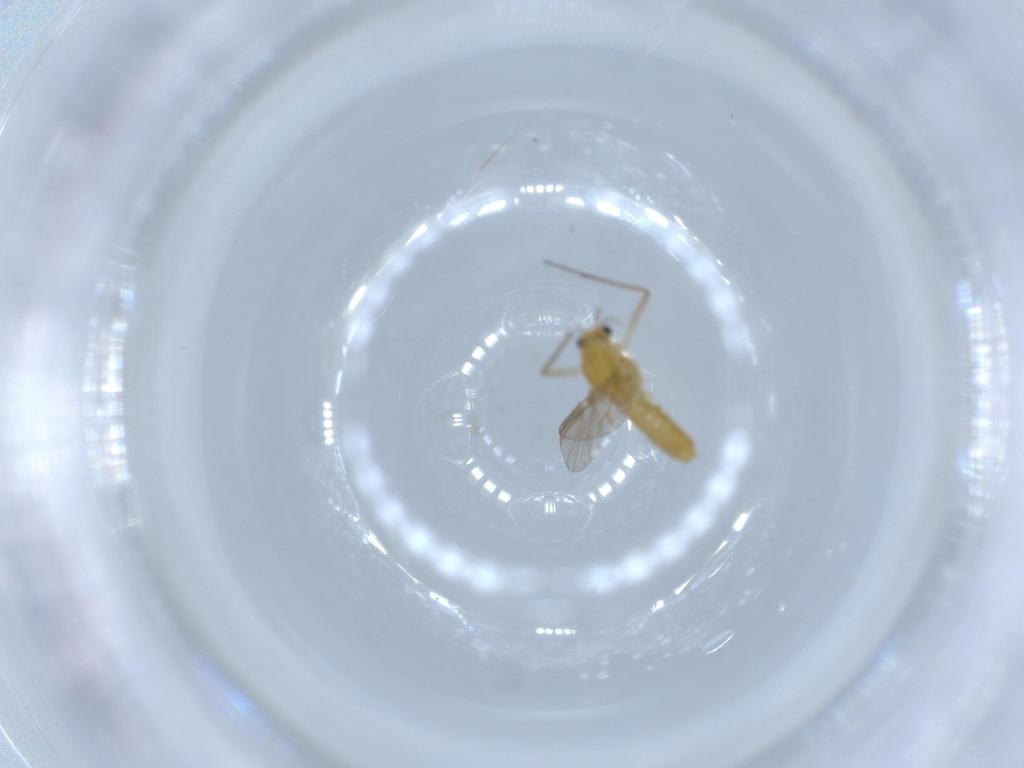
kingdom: Animalia
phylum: Arthropoda
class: Insecta
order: Diptera
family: Chironomidae
